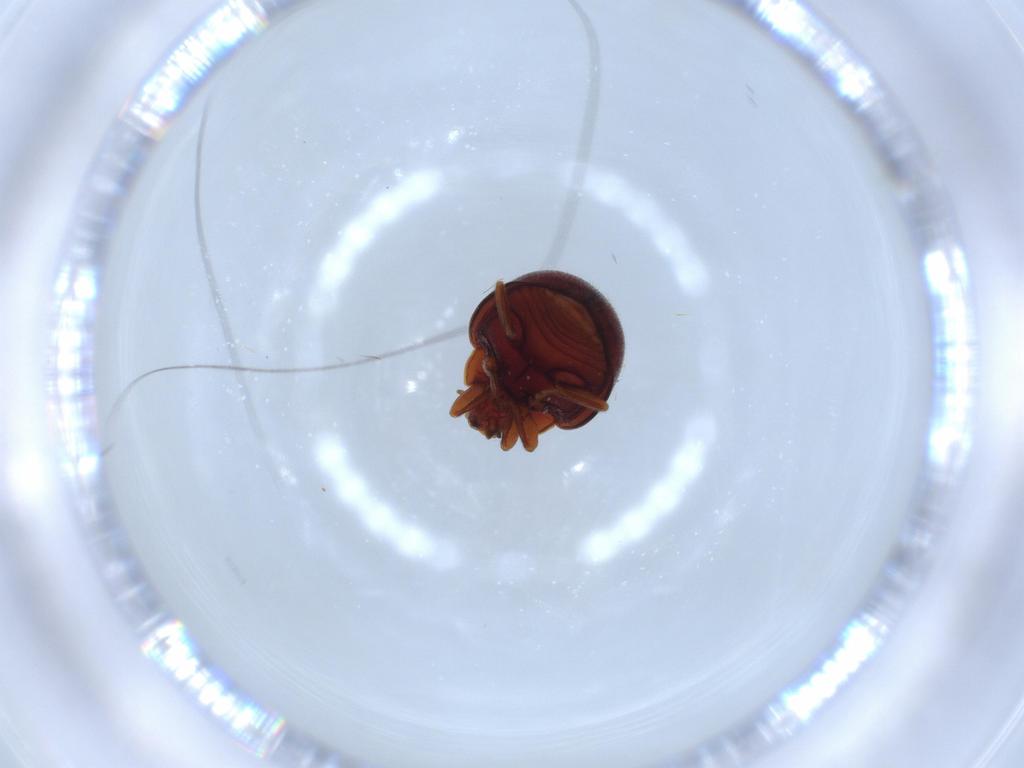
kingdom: Animalia
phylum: Arthropoda
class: Insecta
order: Coleoptera
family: Coccinellidae
